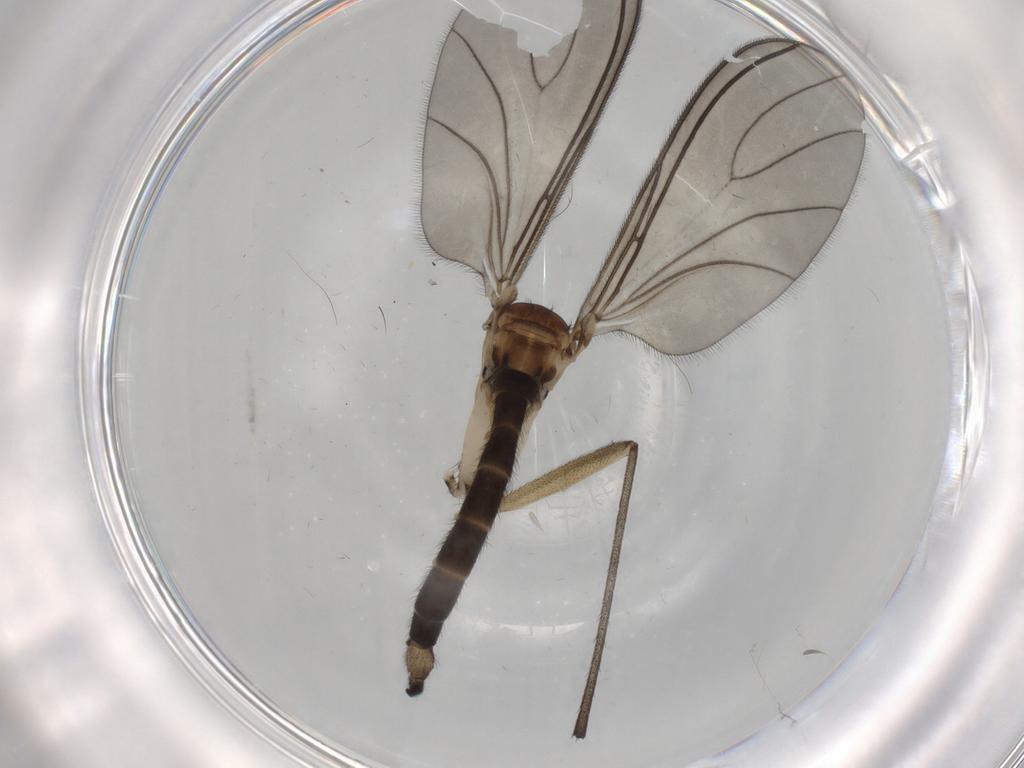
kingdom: Animalia
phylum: Arthropoda
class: Insecta
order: Diptera
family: Sciaridae
